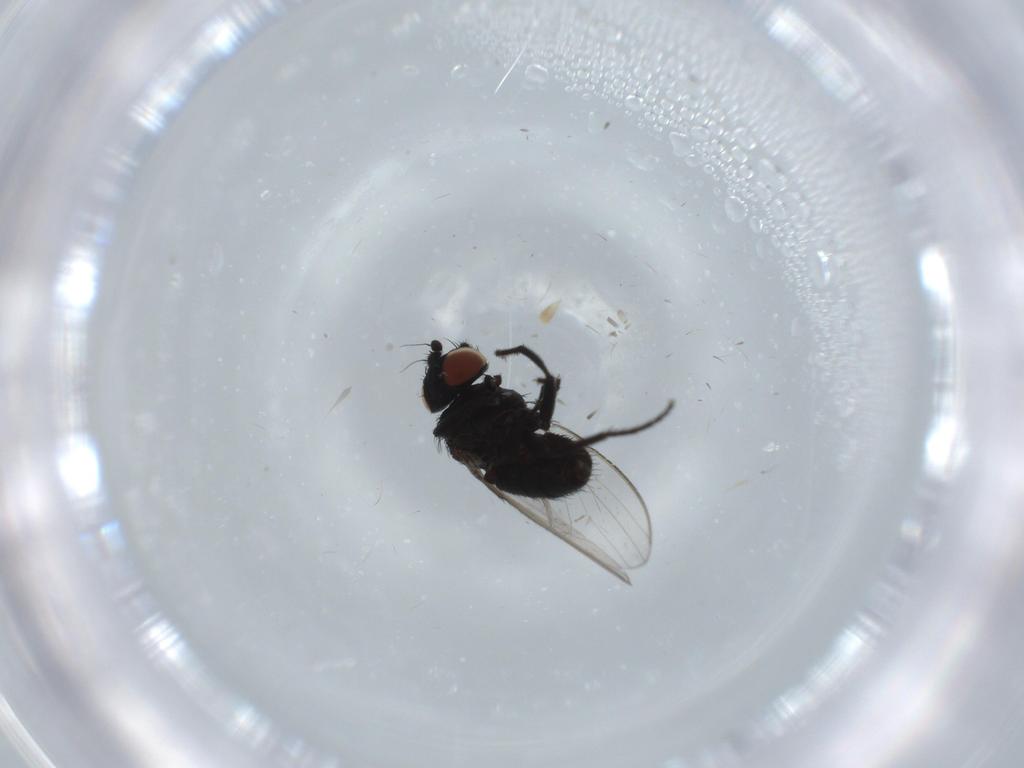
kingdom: Animalia
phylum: Arthropoda
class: Insecta
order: Diptera
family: Milichiidae
